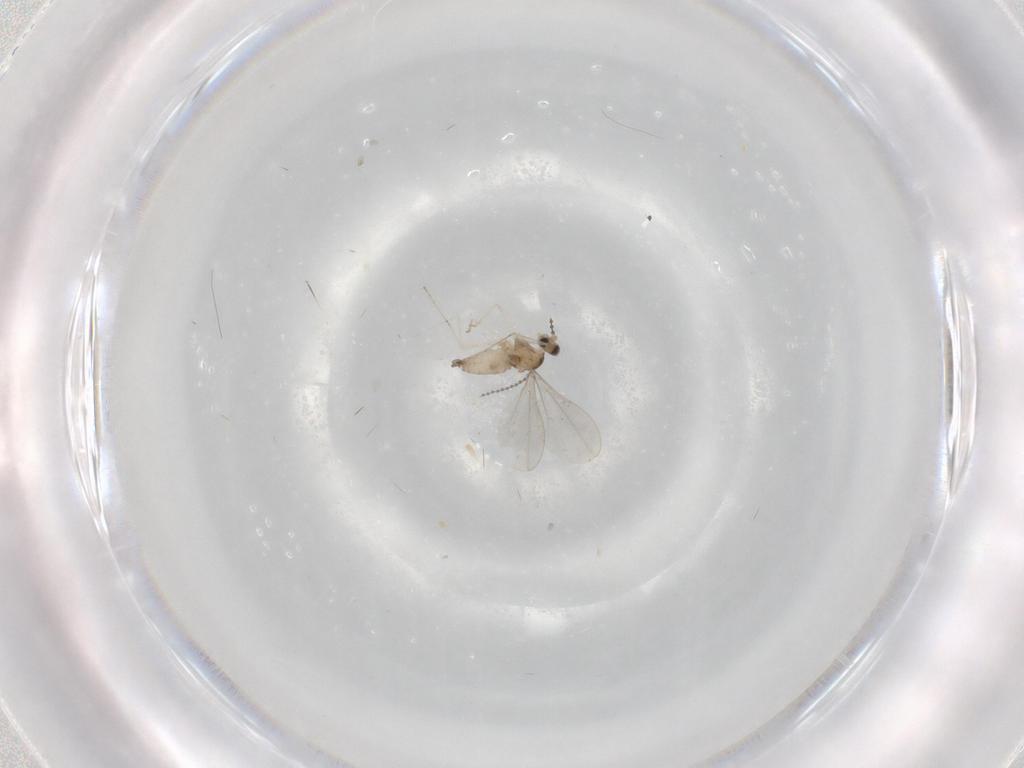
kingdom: Animalia
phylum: Arthropoda
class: Insecta
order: Diptera
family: Cecidomyiidae
